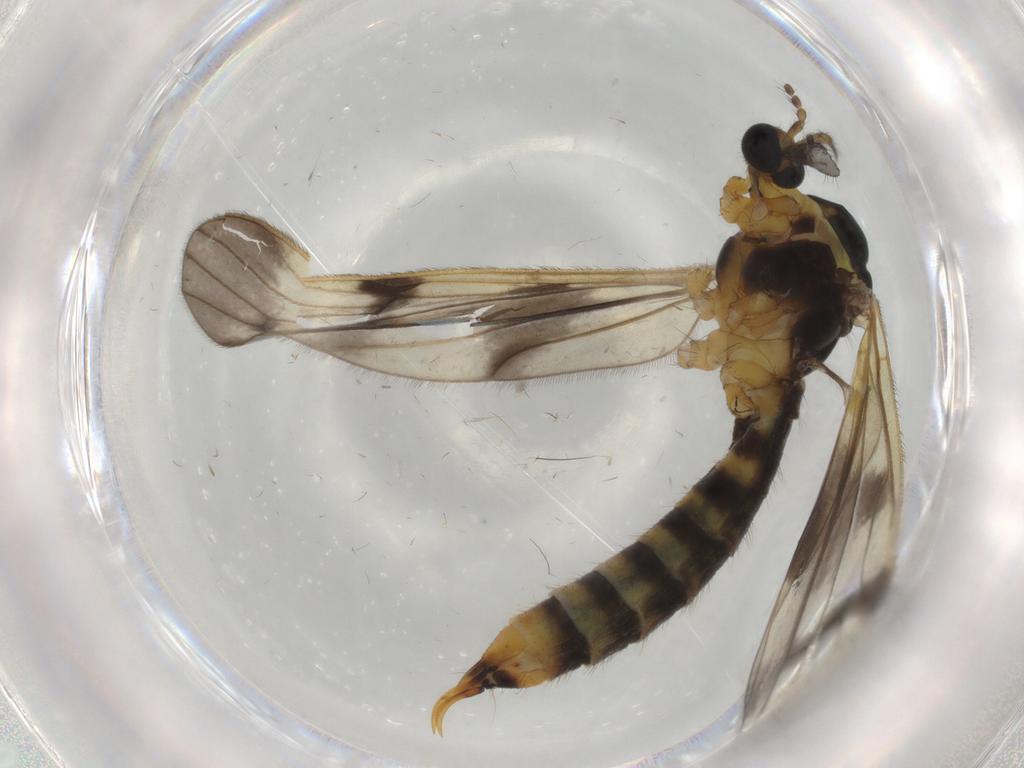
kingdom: Animalia
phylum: Arthropoda
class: Insecta
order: Diptera
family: Limoniidae
